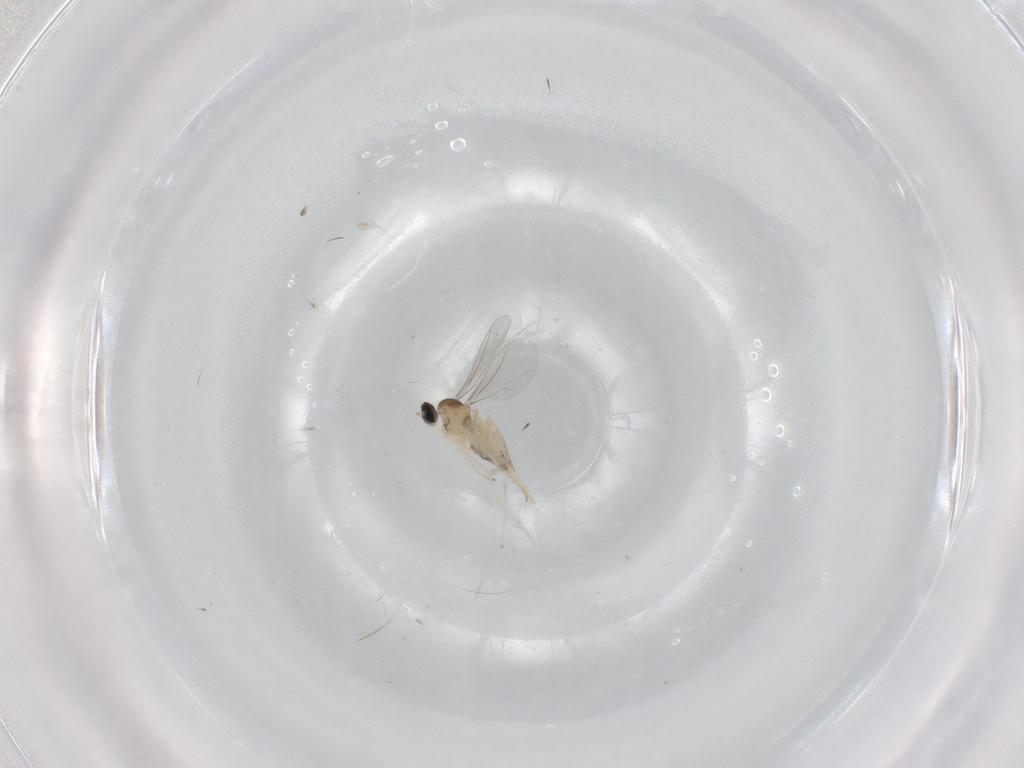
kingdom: Animalia
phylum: Arthropoda
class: Insecta
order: Diptera
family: Cecidomyiidae
